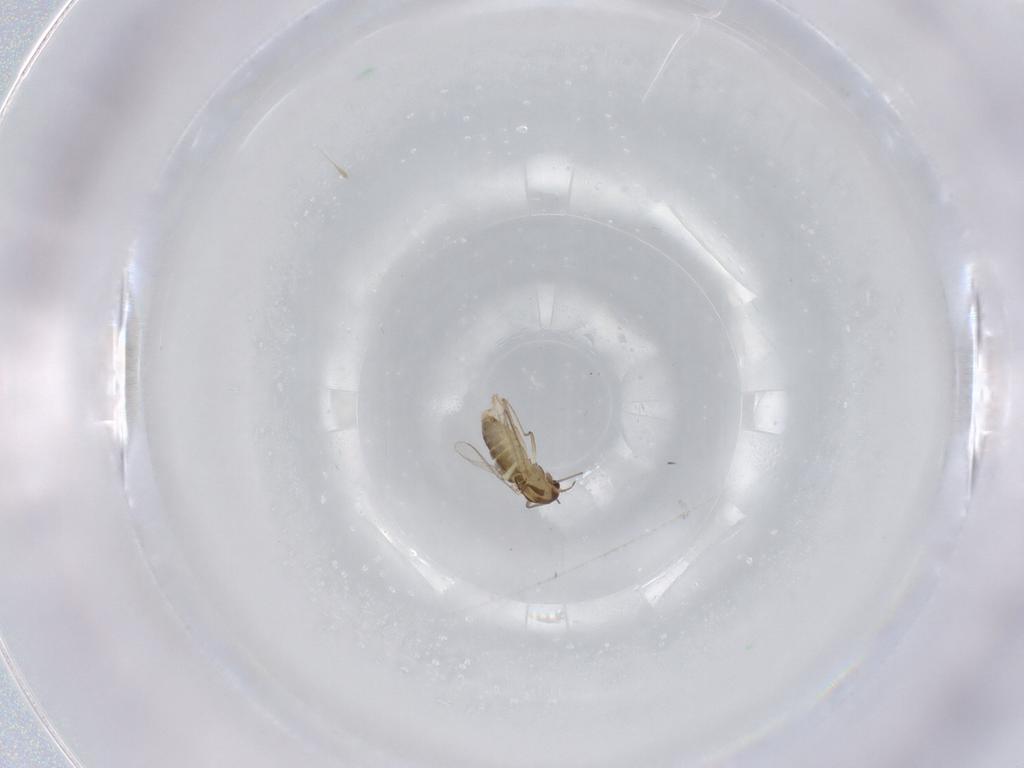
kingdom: Animalia
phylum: Arthropoda
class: Insecta
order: Diptera
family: Chironomidae
